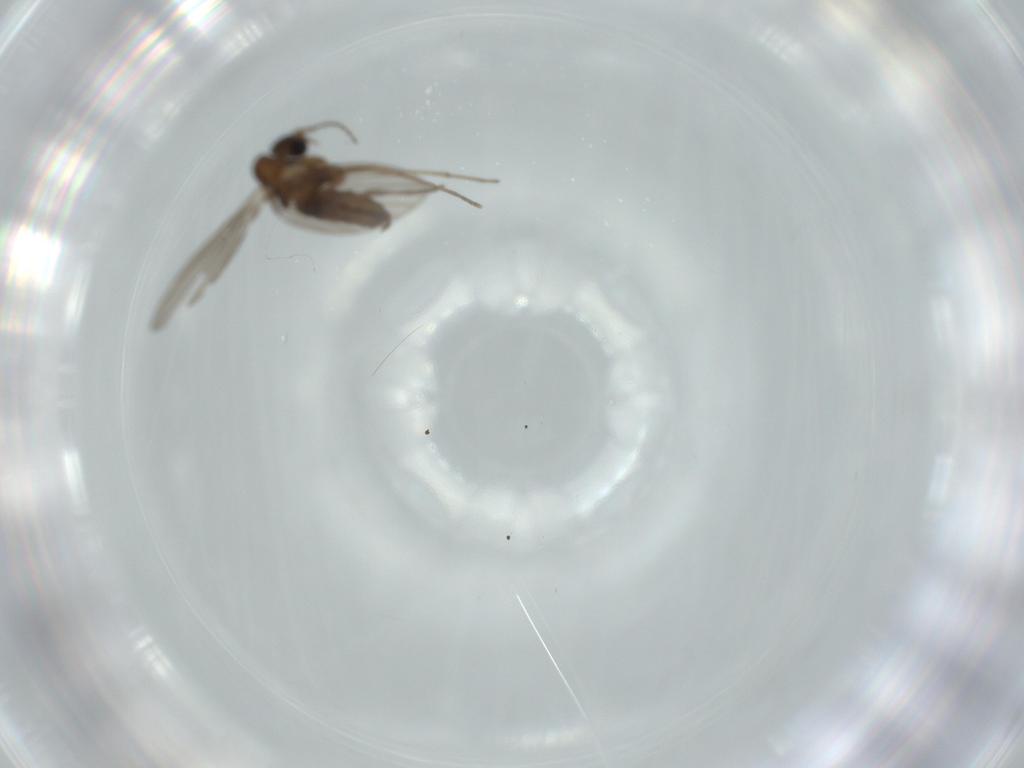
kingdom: Animalia
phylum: Arthropoda
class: Insecta
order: Diptera
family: Psychodidae
